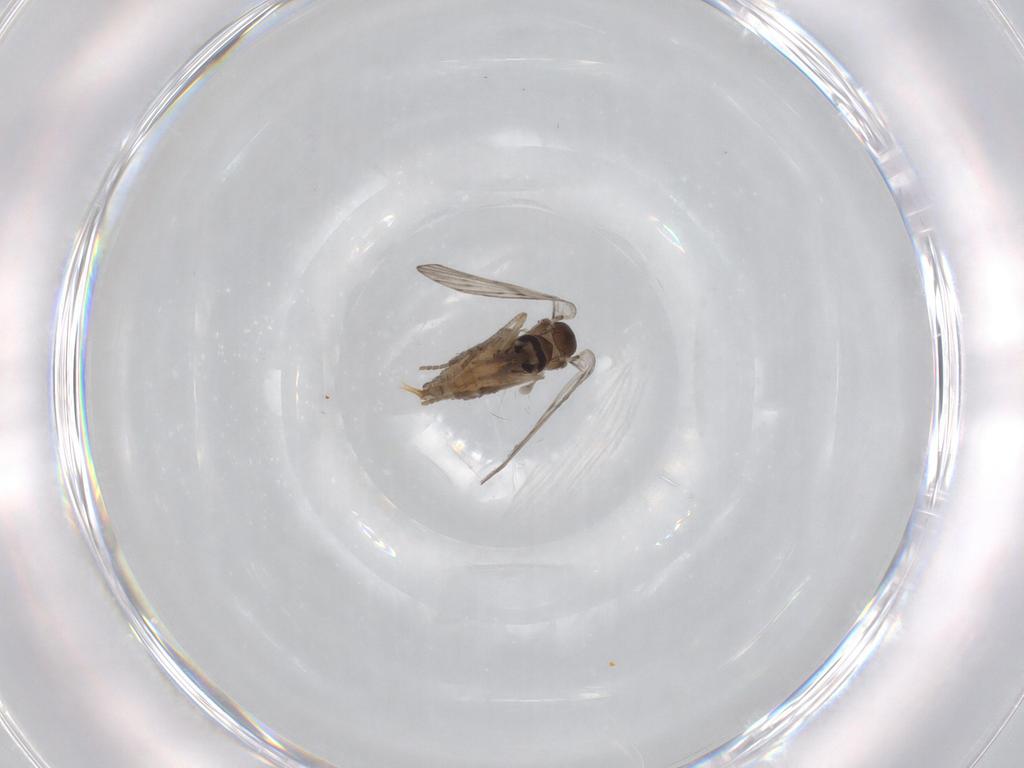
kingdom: Animalia
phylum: Arthropoda
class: Insecta
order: Diptera
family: Psychodidae
